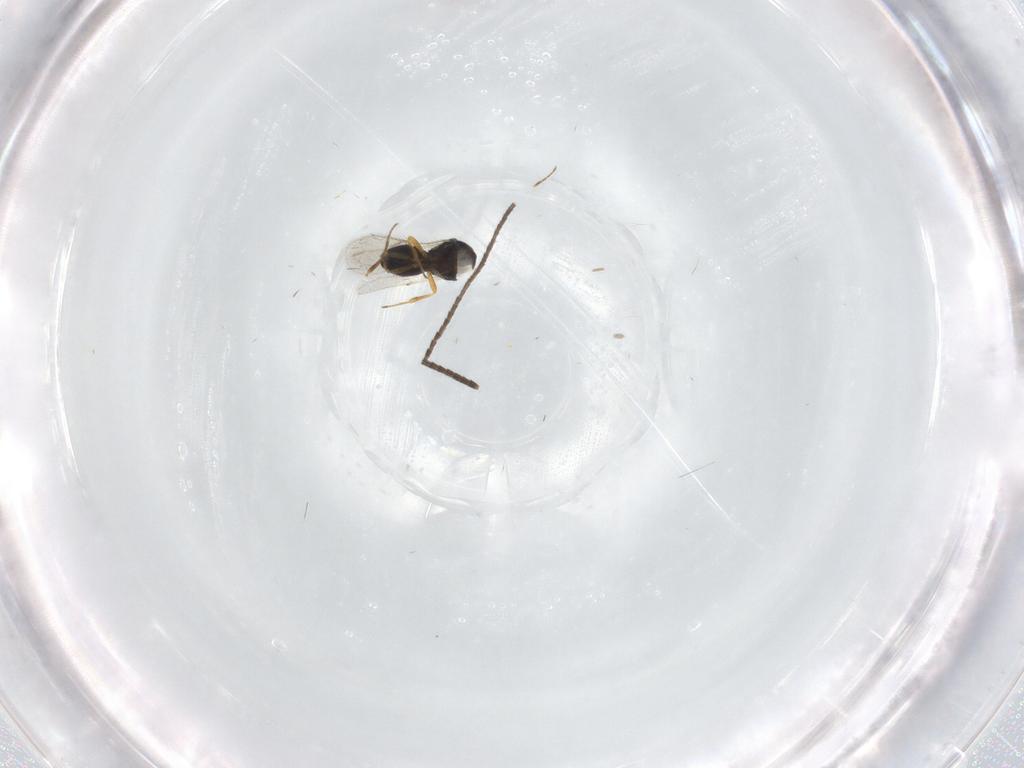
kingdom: Animalia
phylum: Arthropoda
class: Insecta
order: Hymenoptera
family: Scelionidae
